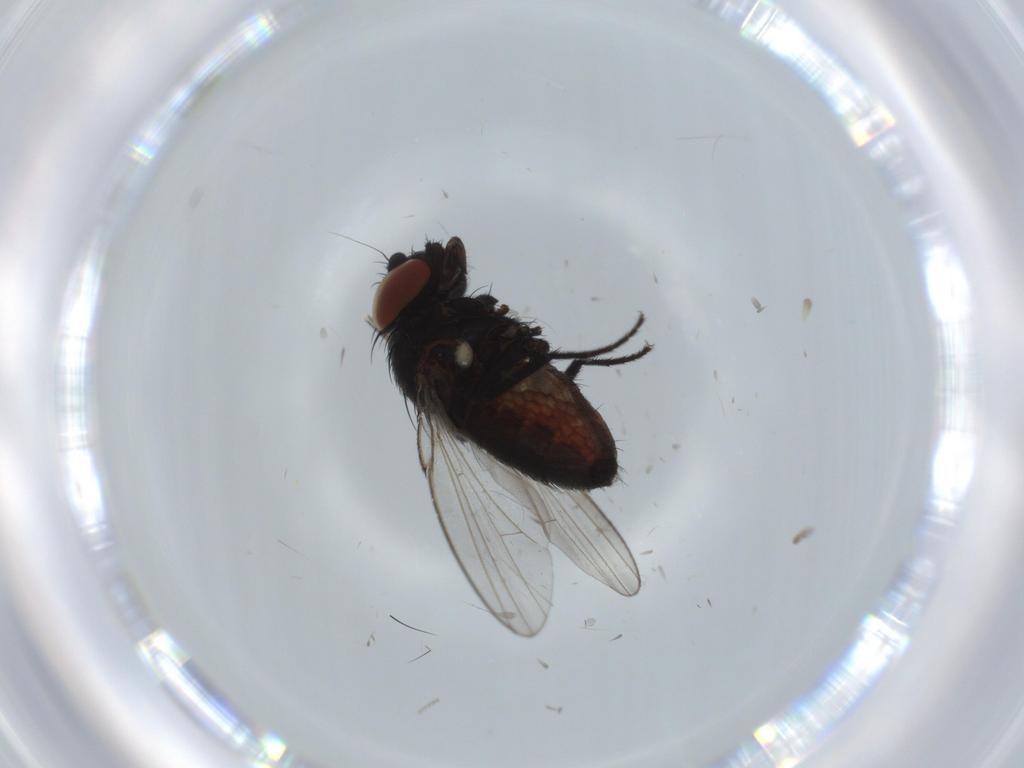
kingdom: Animalia
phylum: Arthropoda
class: Insecta
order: Diptera
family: Milichiidae
